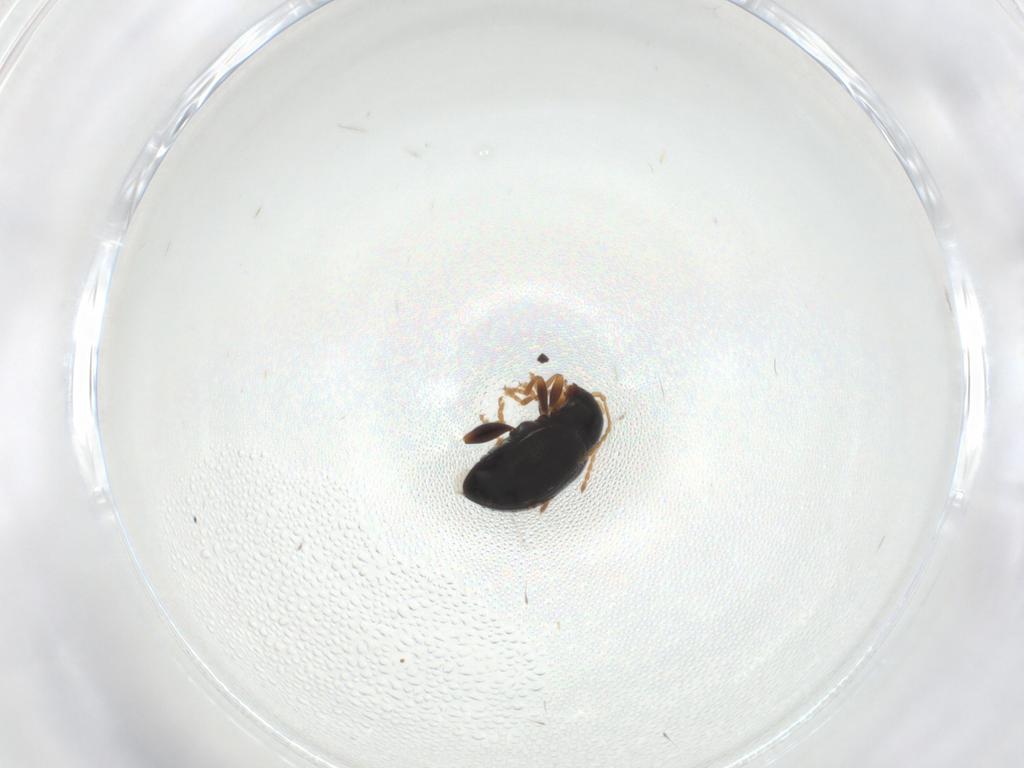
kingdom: Animalia
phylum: Arthropoda
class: Insecta
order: Coleoptera
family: Chrysomelidae
